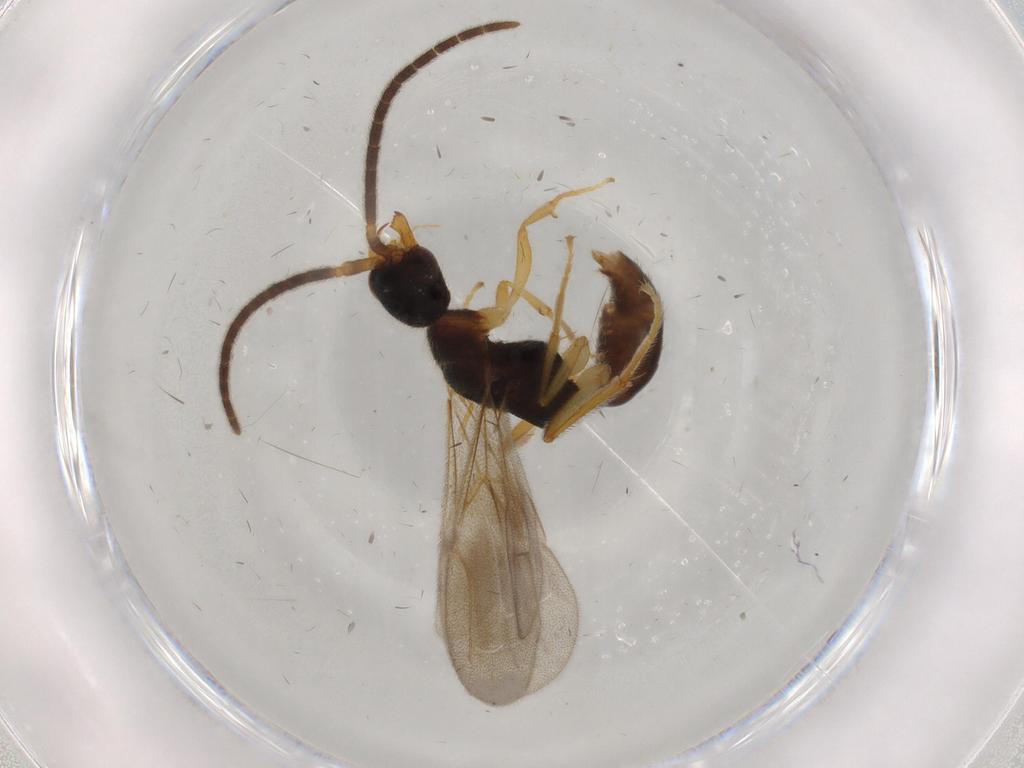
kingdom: Animalia
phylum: Arthropoda
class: Insecta
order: Hymenoptera
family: Bethylidae
